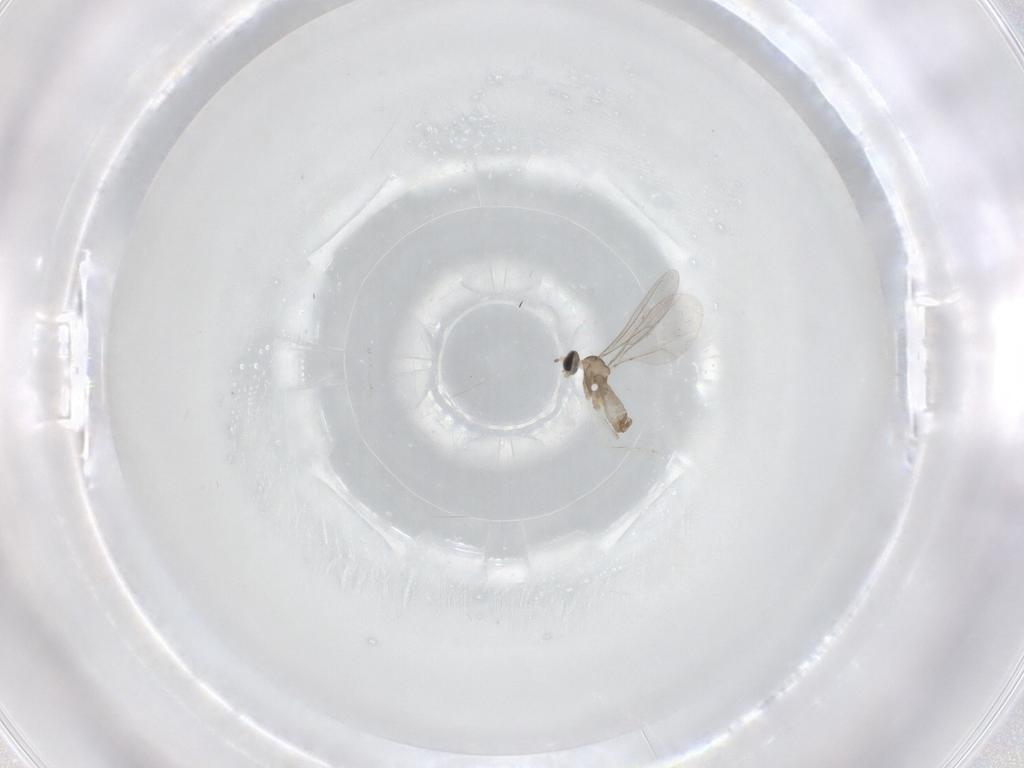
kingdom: Animalia
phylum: Arthropoda
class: Insecta
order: Diptera
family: Cecidomyiidae
